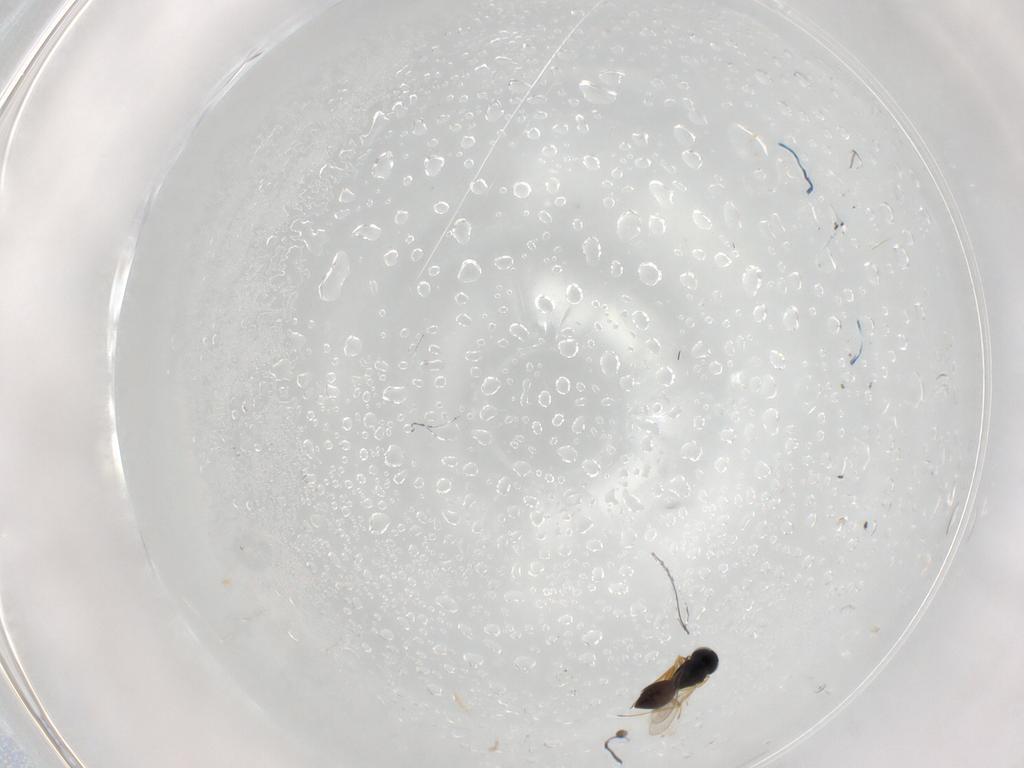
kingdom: Animalia
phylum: Arthropoda
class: Insecta
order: Hymenoptera
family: Scelionidae
